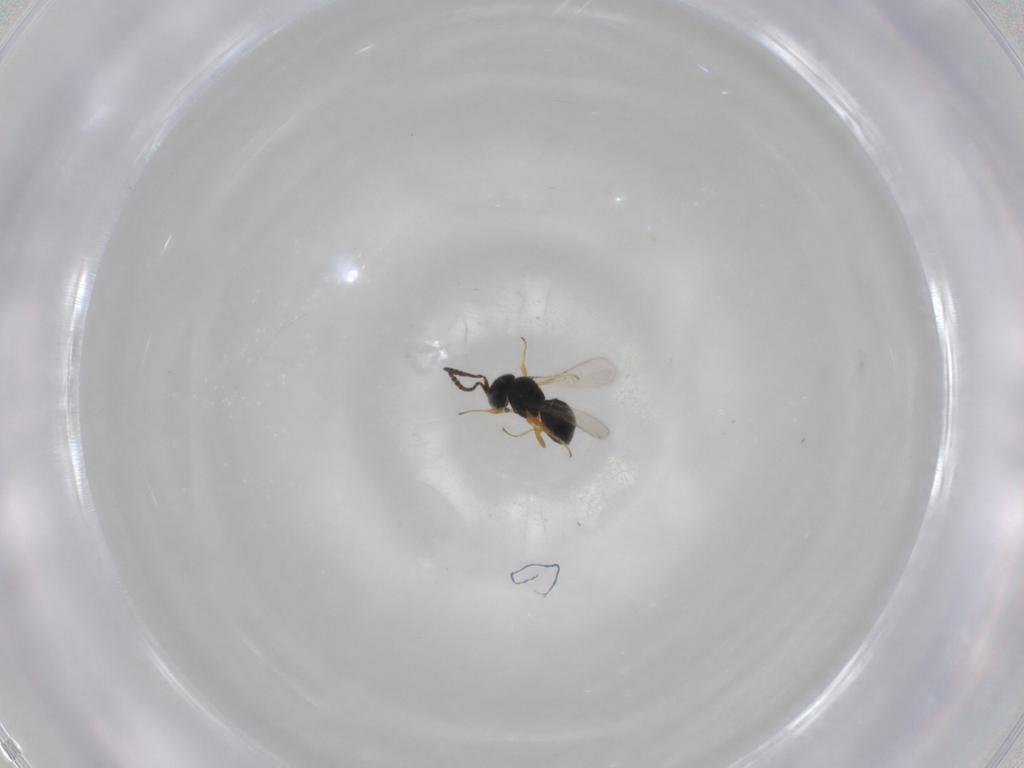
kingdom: Animalia
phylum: Arthropoda
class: Insecta
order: Hymenoptera
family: Scelionidae
